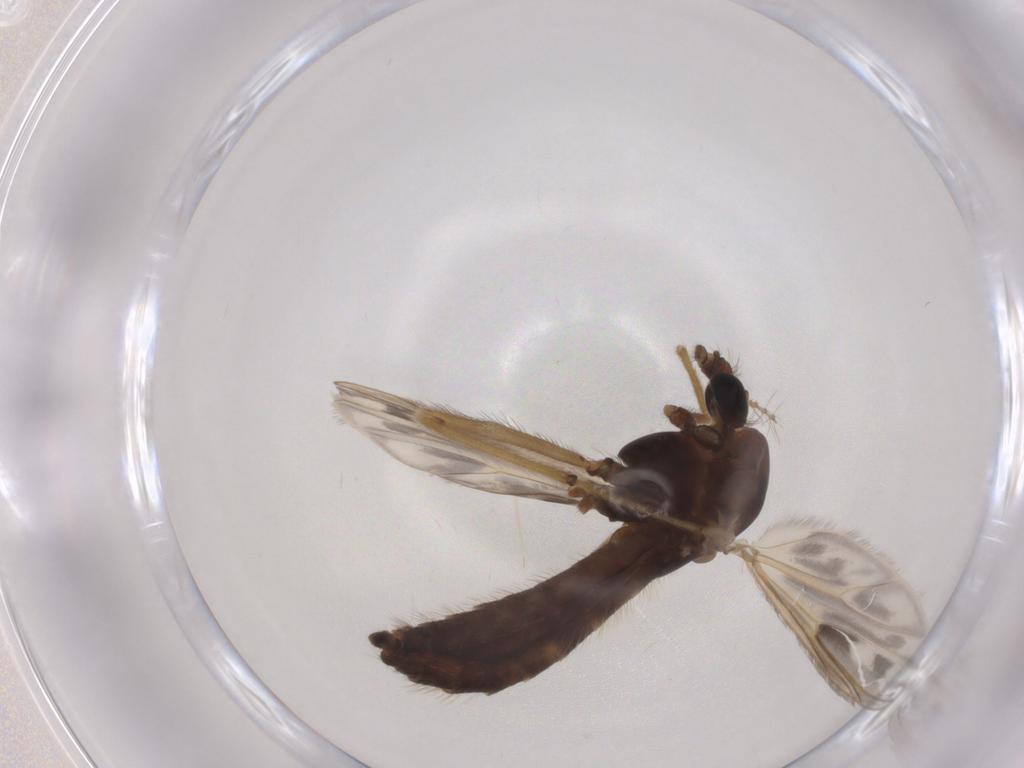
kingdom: Animalia
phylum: Arthropoda
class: Insecta
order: Diptera
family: Chironomidae
